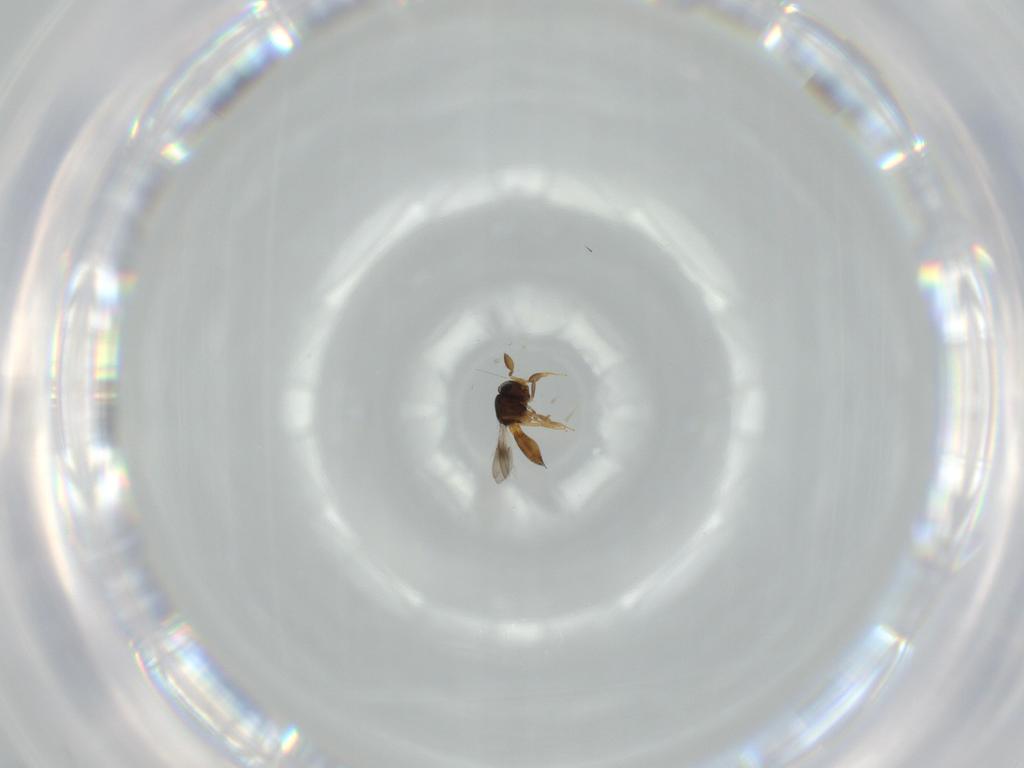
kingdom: Animalia
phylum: Arthropoda
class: Insecta
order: Hymenoptera
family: Scelionidae
